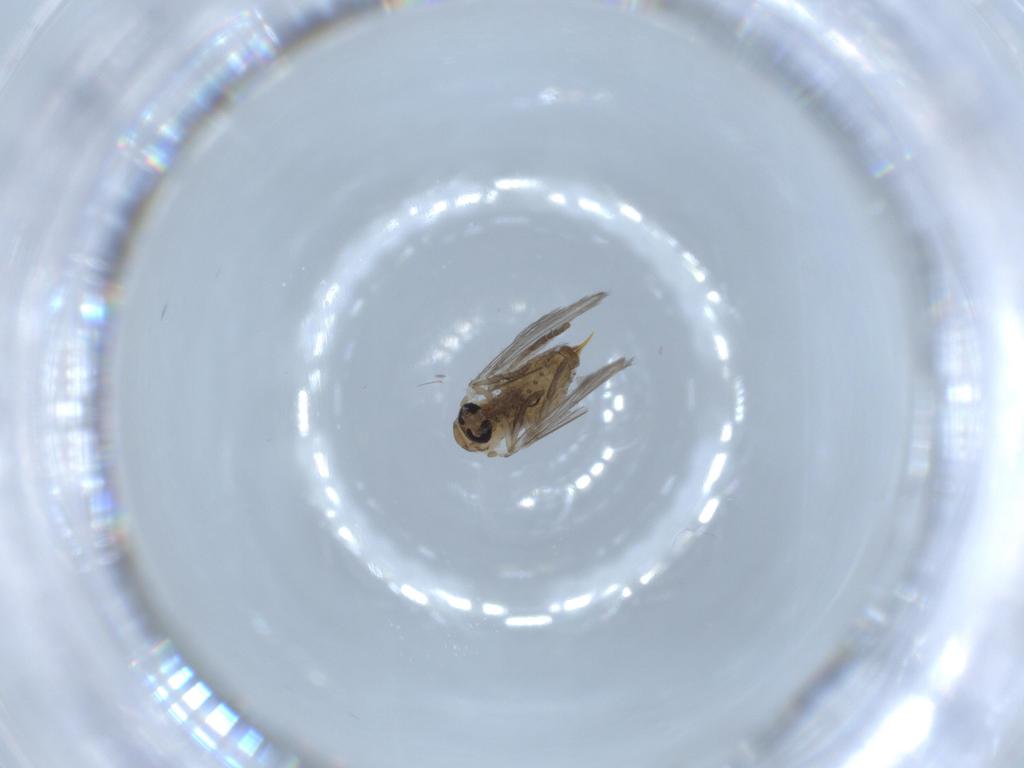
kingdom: Animalia
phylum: Arthropoda
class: Insecta
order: Diptera
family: Psychodidae
